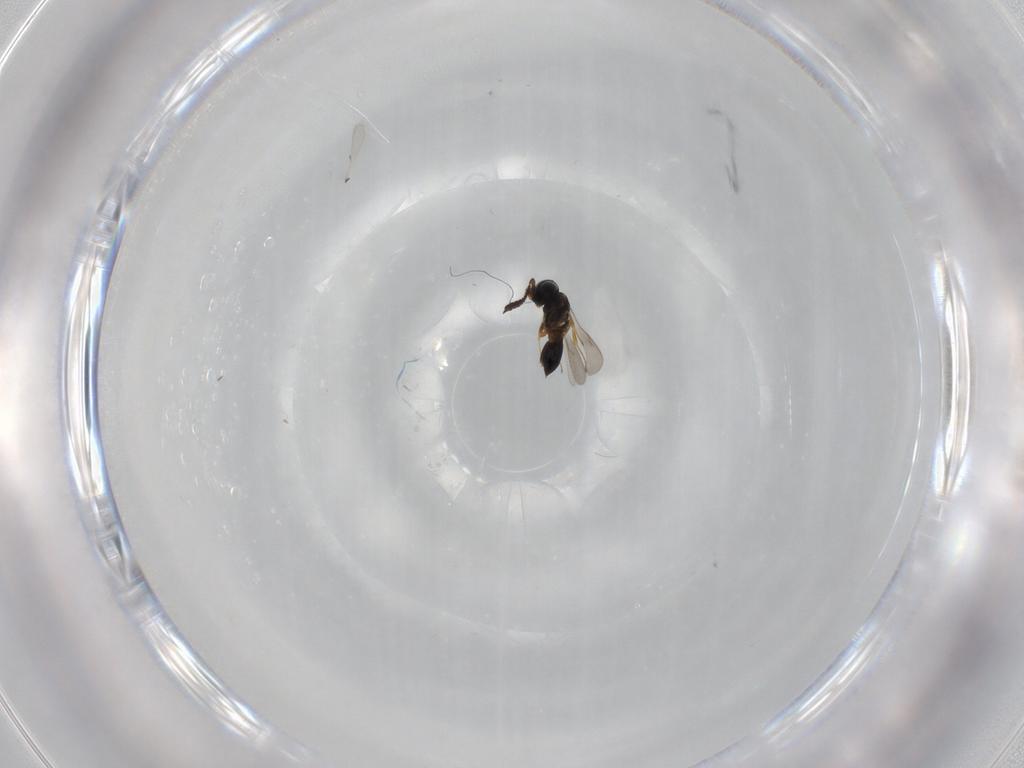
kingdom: Animalia
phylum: Arthropoda
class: Insecta
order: Hymenoptera
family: Scelionidae
